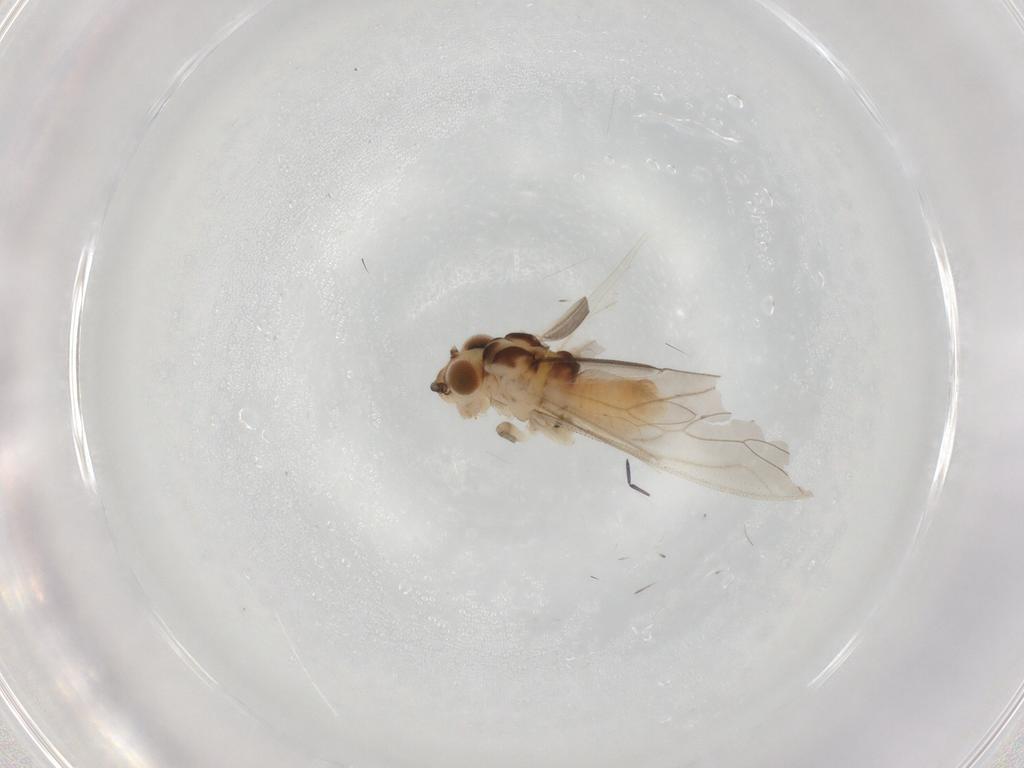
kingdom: Animalia
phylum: Arthropoda
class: Insecta
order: Psocodea
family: Caeciliusidae
